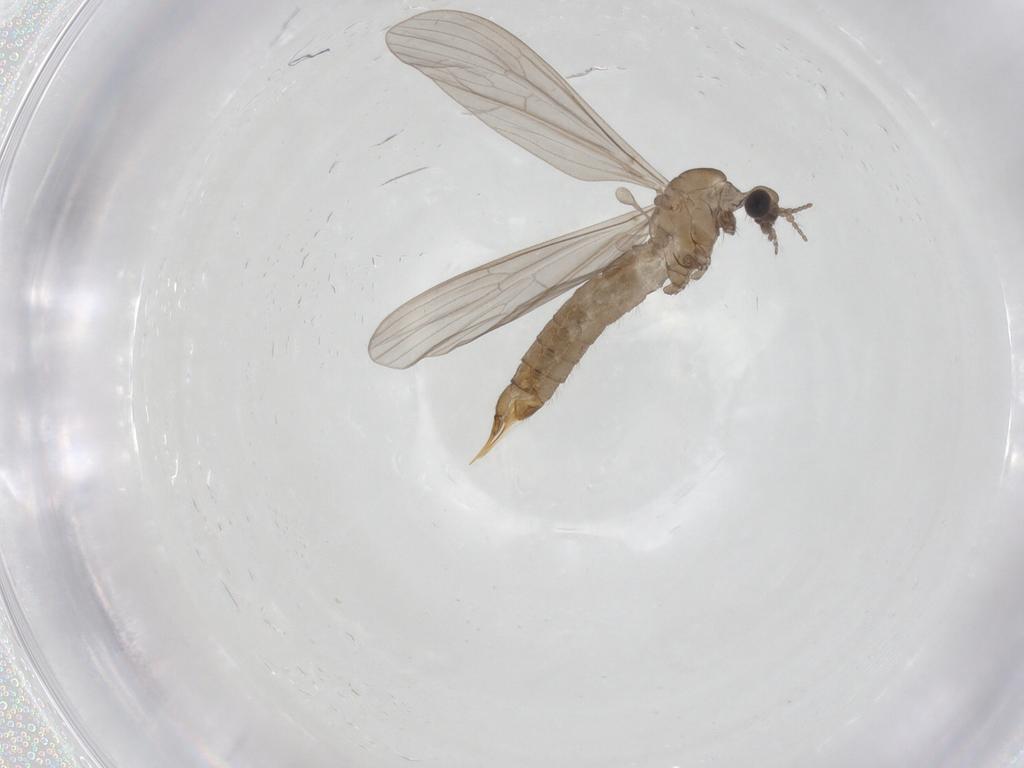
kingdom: Animalia
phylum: Arthropoda
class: Insecta
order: Diptera
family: Limoniidae
